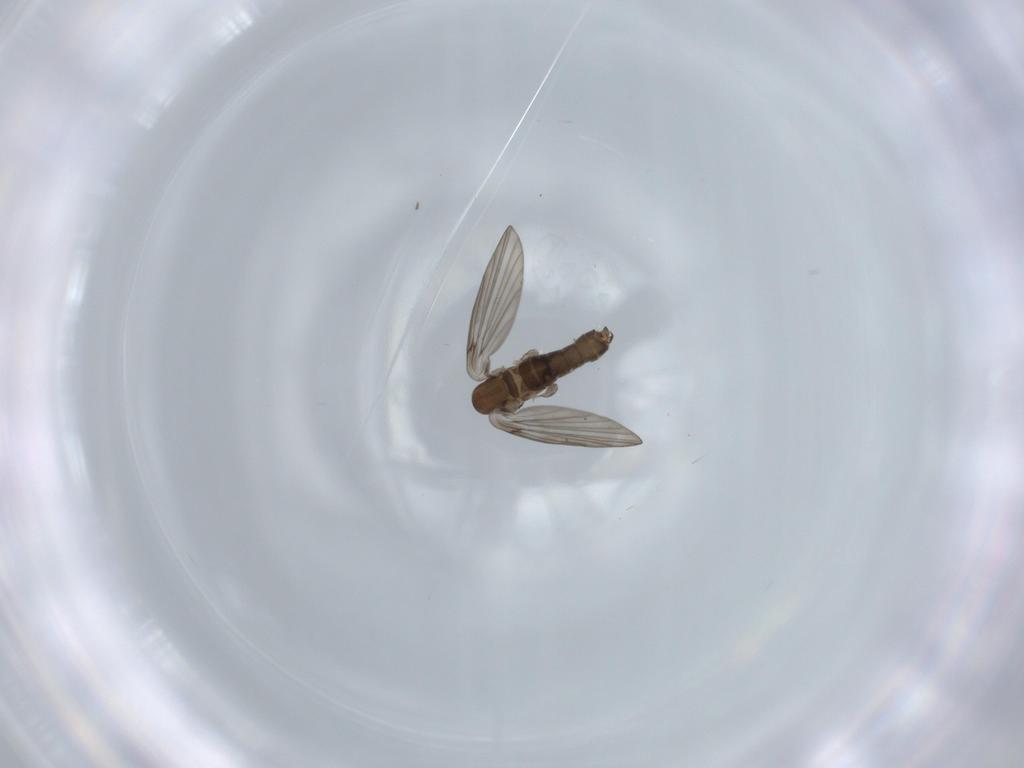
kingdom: Animalia
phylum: Arthropoda
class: Insecta
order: Diptera
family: Psychodidae
